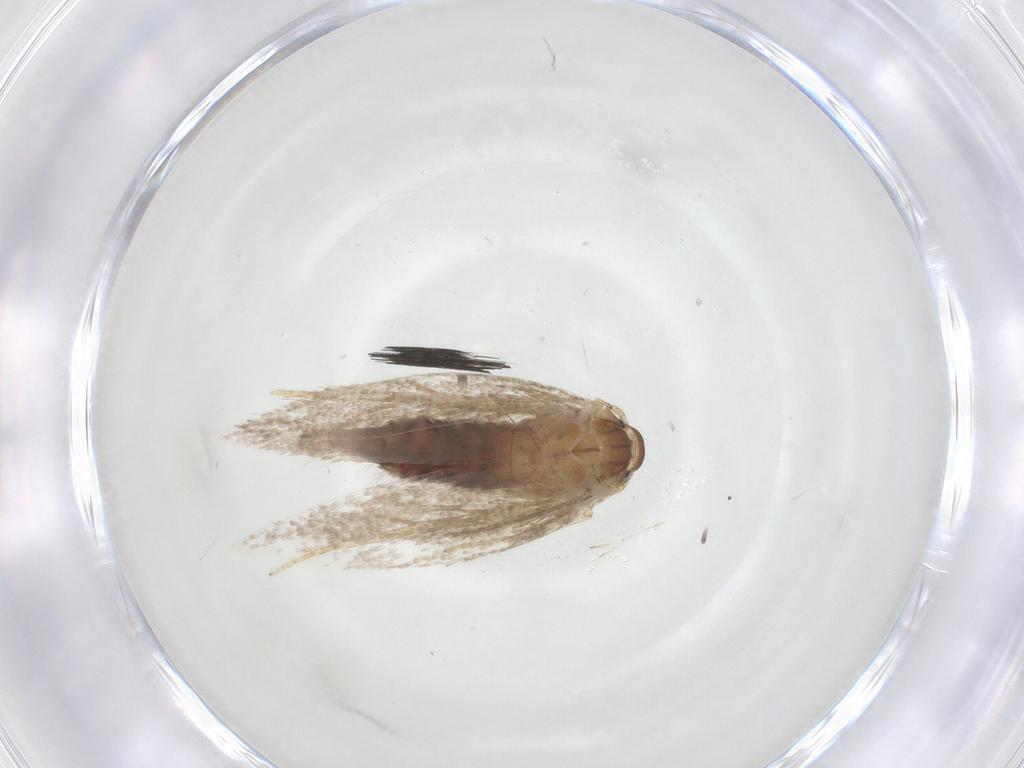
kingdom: Animalia
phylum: Arthropoda
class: Insecta
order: Lepidoptera
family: Gelechiidae
